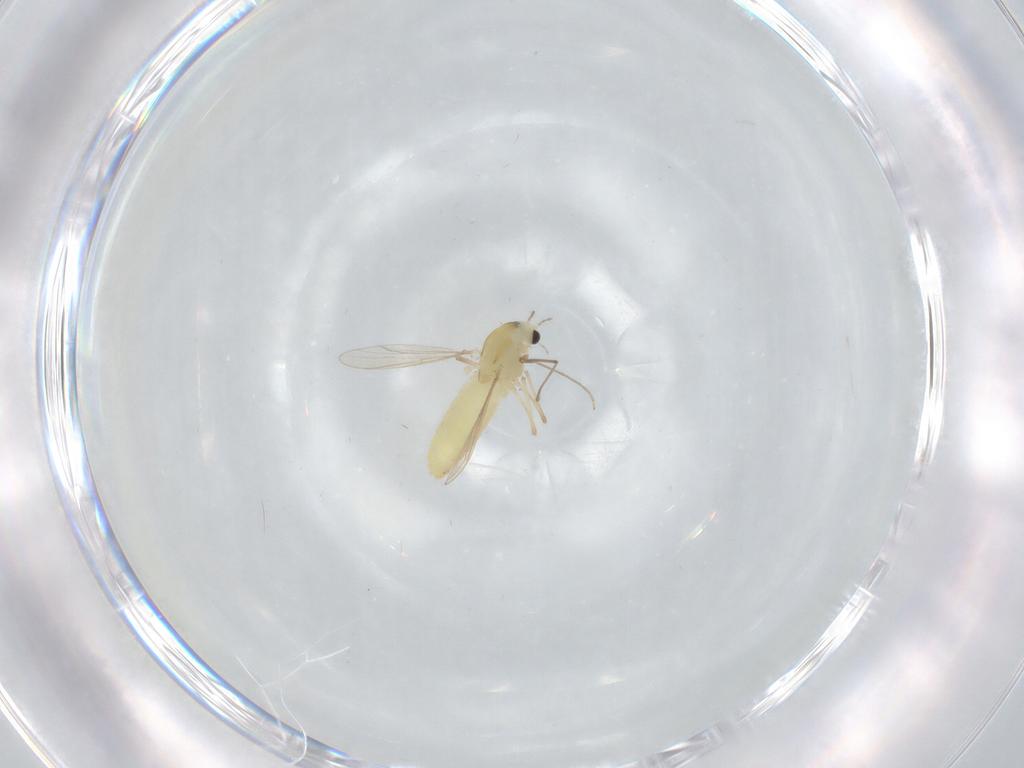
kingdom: Animalia
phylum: Arthropoda
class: Insecta
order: Diptera
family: Chironomidae
